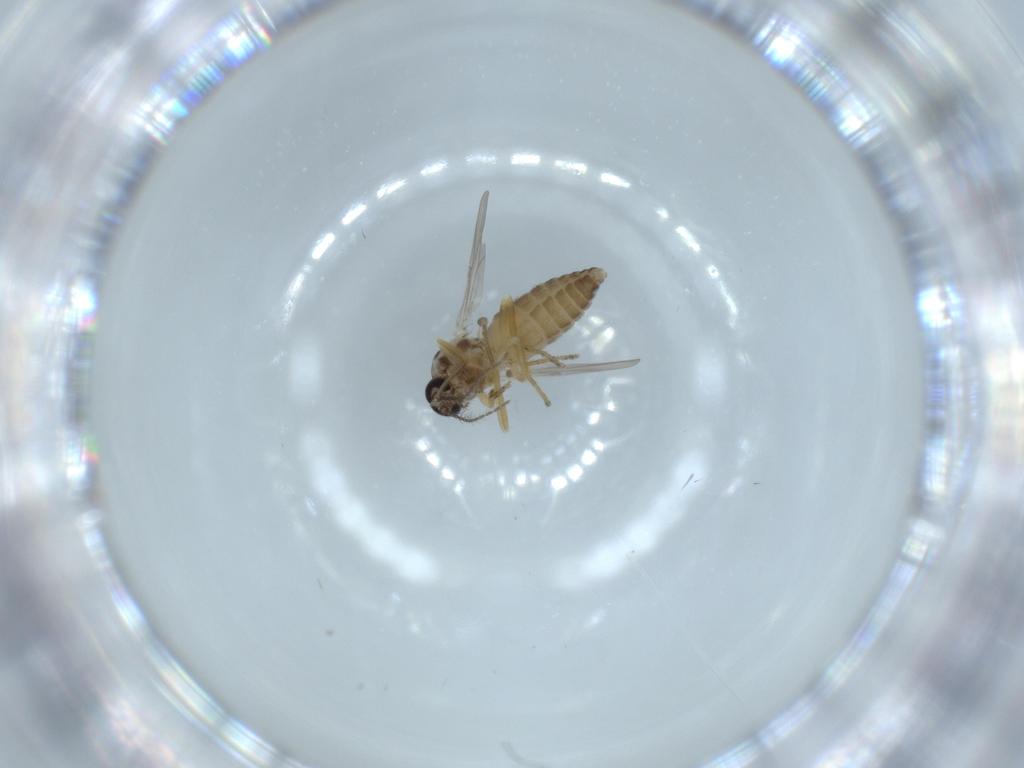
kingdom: Animalia
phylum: Arthropoda
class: Insecta
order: Diptera
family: Ceratopogonidae
